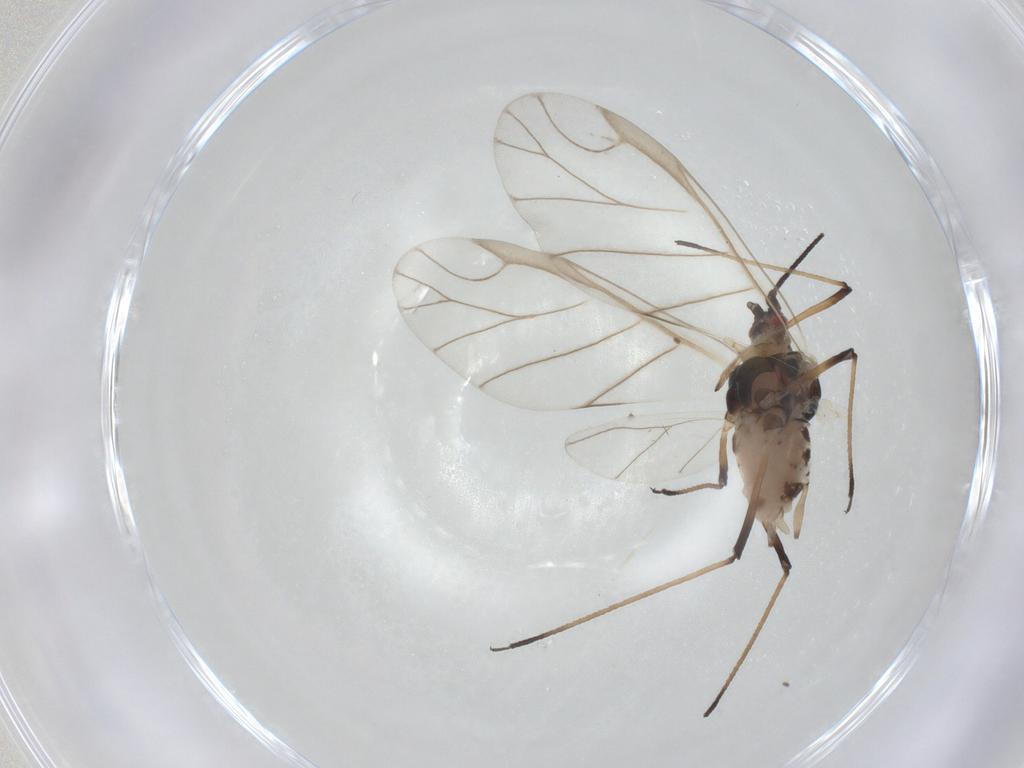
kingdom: Animalia
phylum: Arthropoda
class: Insecta
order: Hemiptera
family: Aphididae
